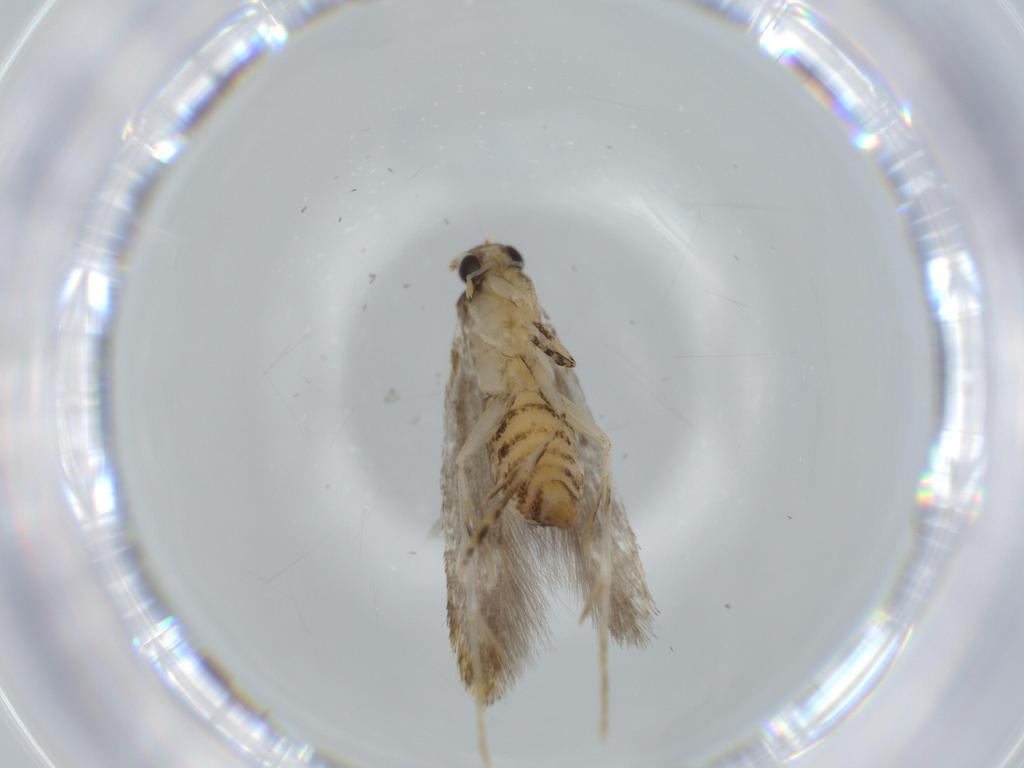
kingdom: Animalia
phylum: Arthropoda
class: Insecta
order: Lepidoptera
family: Tineidae
